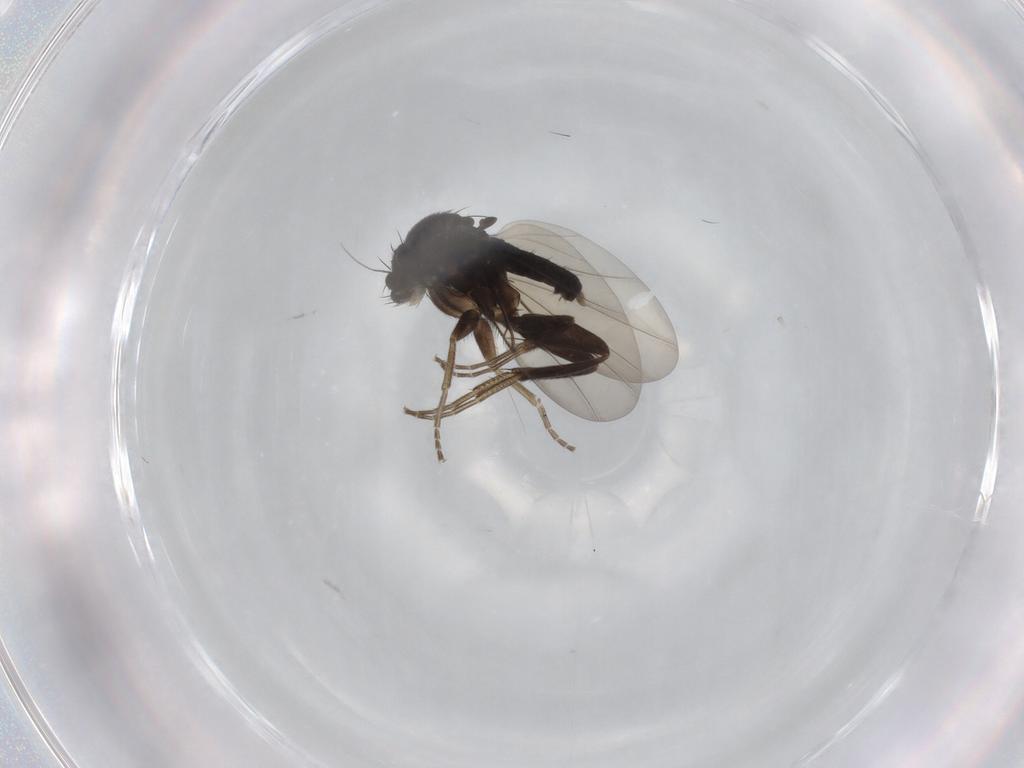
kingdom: Animalia
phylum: Arthropoda
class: Insecta
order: Diptera
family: Phoridae
